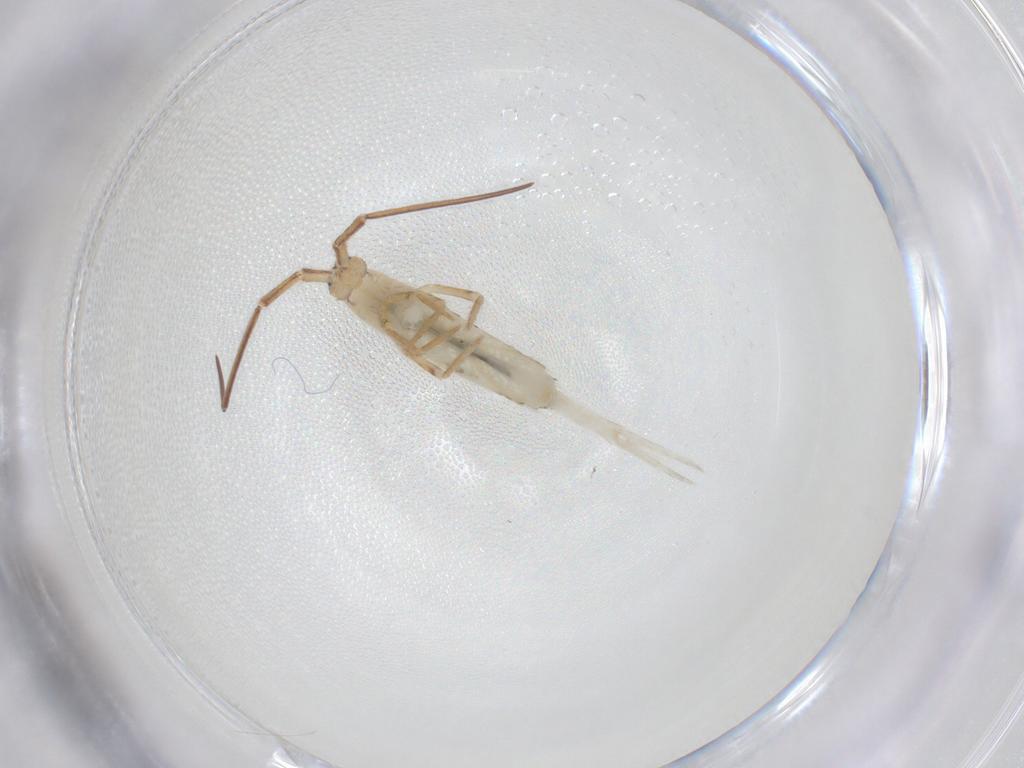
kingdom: Animalia
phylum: Arthropoda
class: Collembola
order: Entomobryomorpha
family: Entomobryidae
